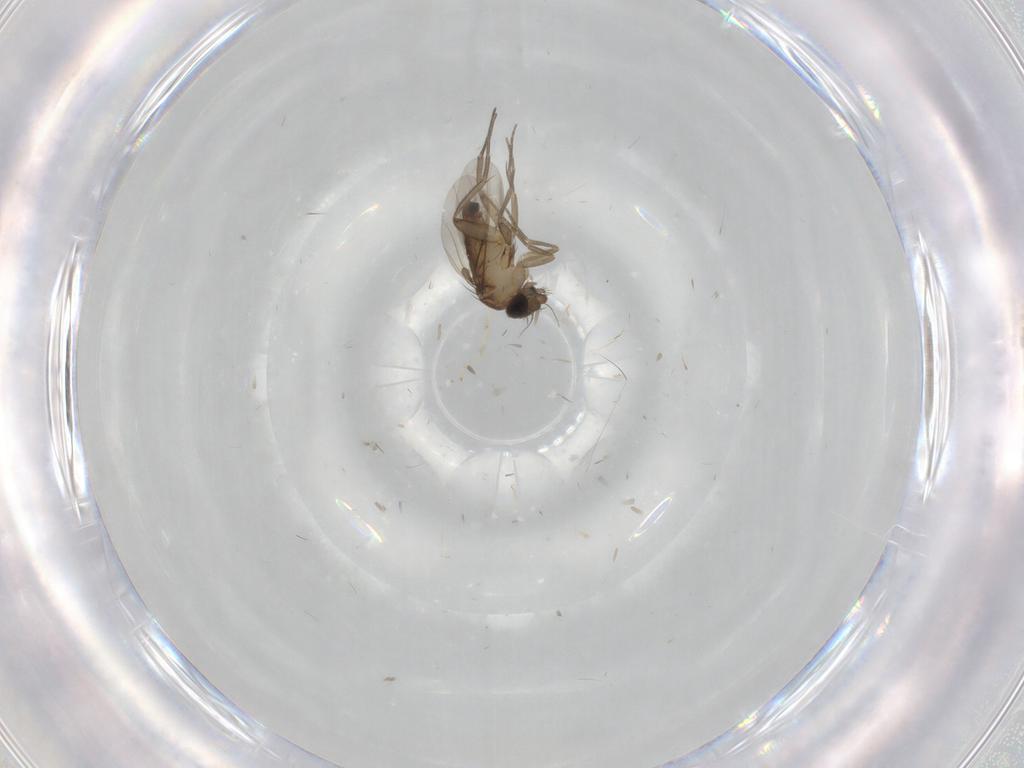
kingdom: Animalia
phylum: Arthropoda
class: Insecta
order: Diptera
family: Phoridae
